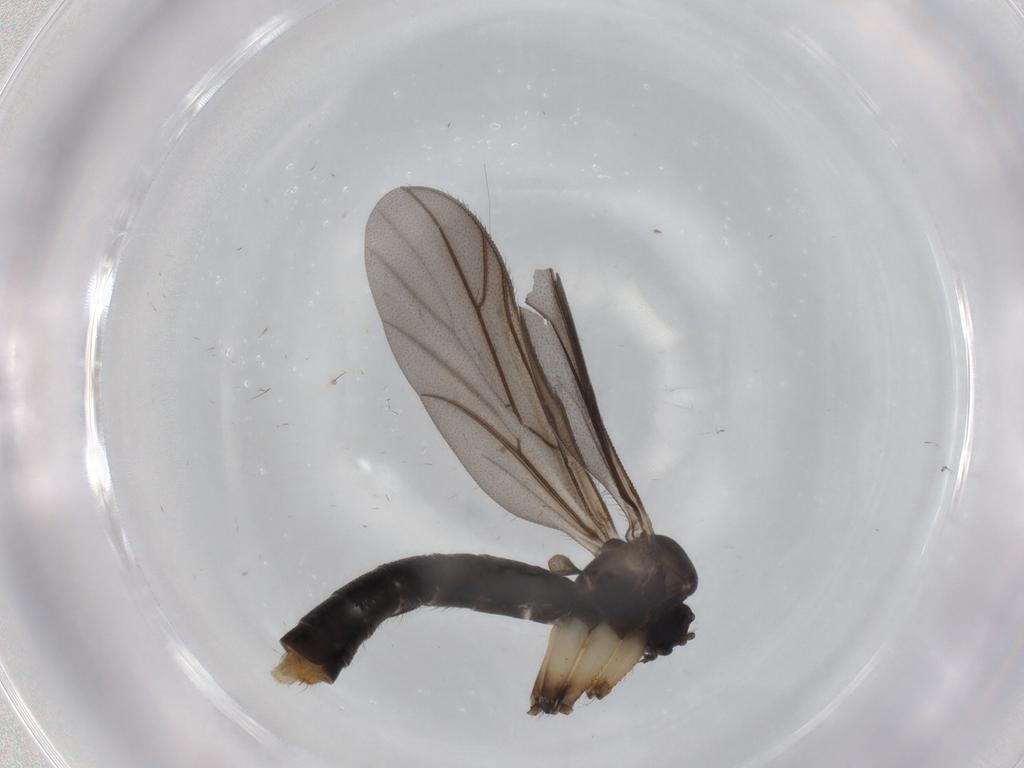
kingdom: Animalia
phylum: Arthropoda
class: Insecta
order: Diptera
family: Ditomyiidae
